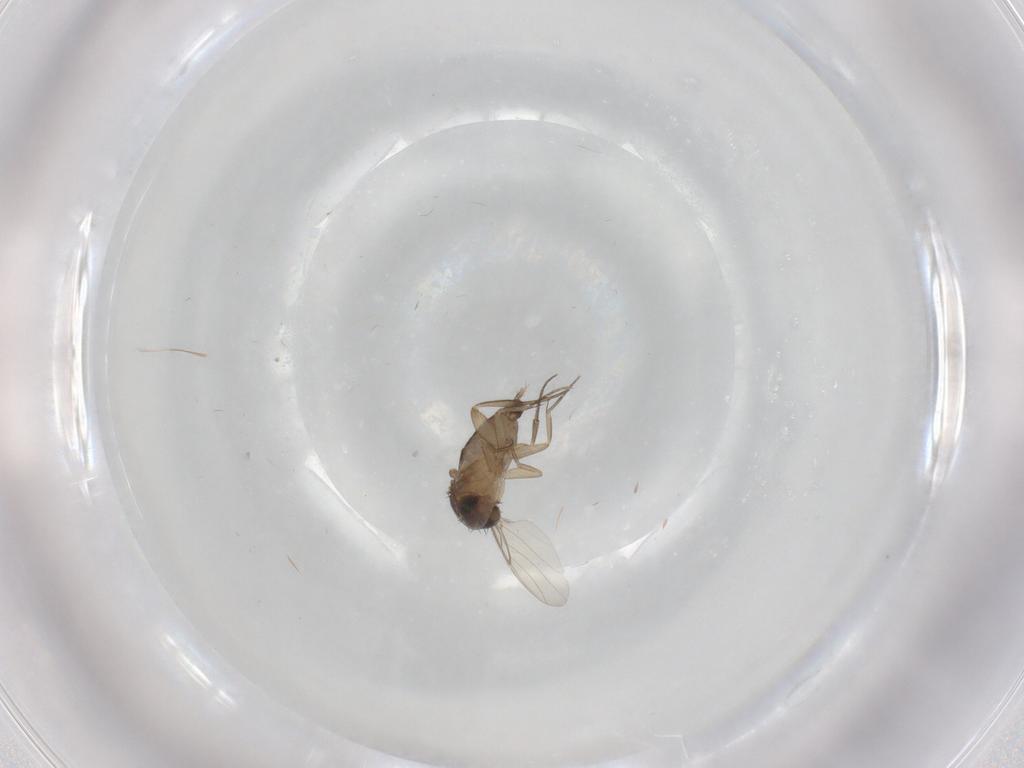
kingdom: Animalia
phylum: Arthropoda
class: Insecta
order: Diptera
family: Phoridae
